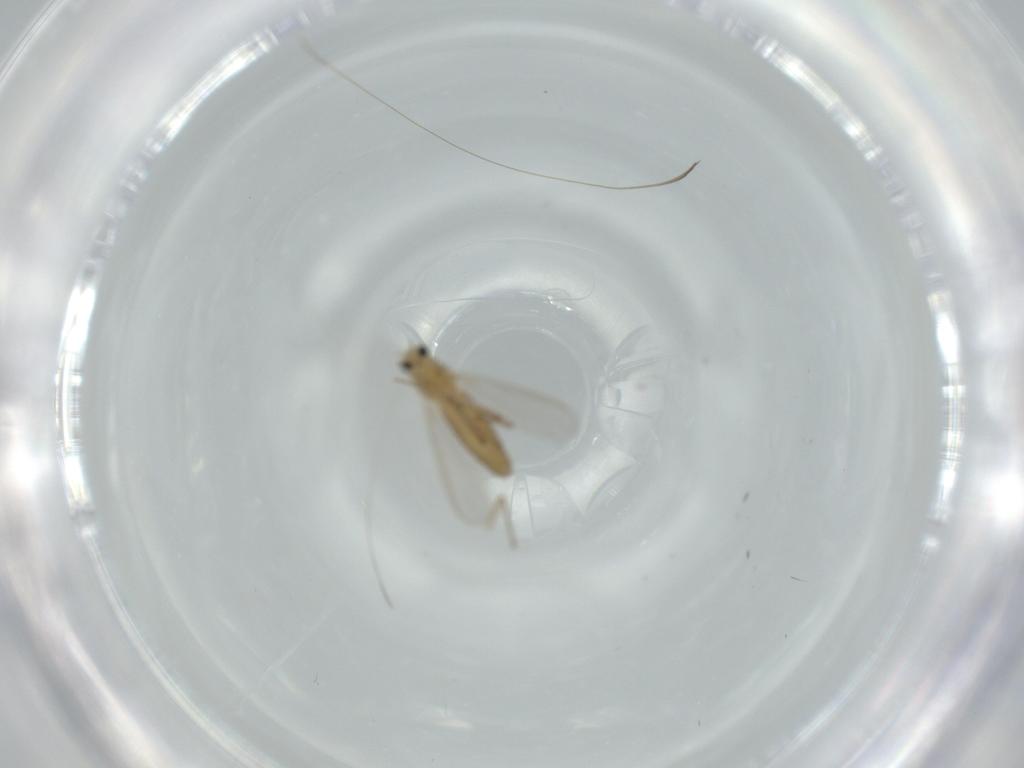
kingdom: Animalia
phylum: Arthropoda
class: Insecta
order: Diptera
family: Chironomidae
